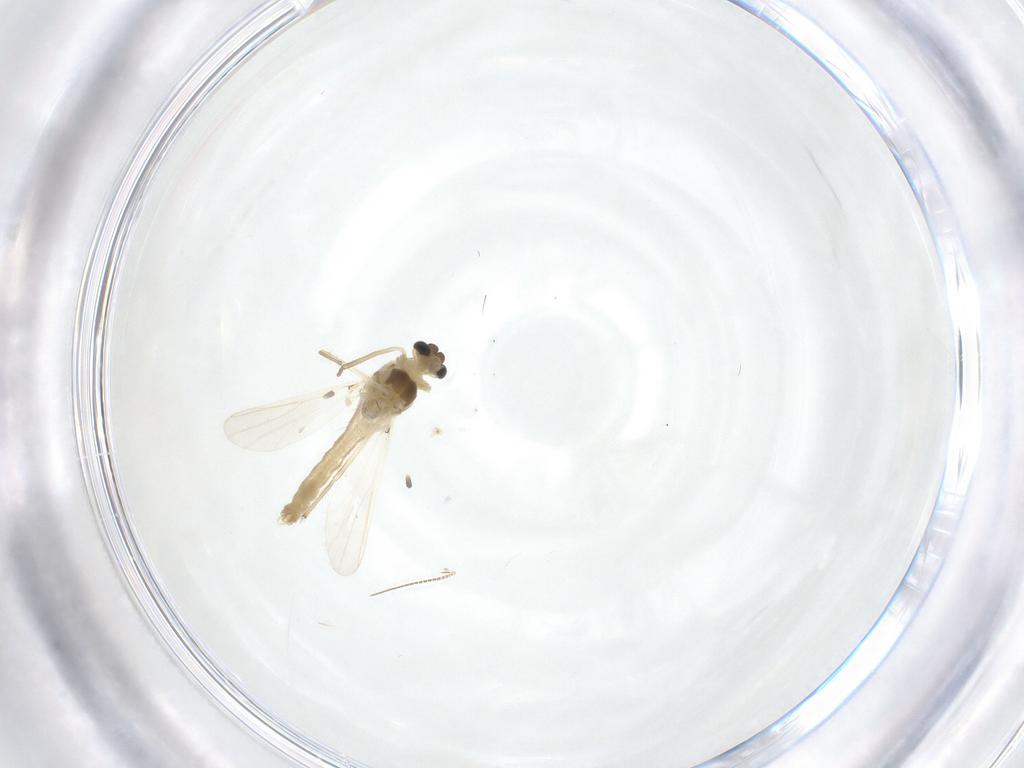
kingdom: Animalia
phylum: Arthropoda
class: Insecta
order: Diptera
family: Chironomidae
